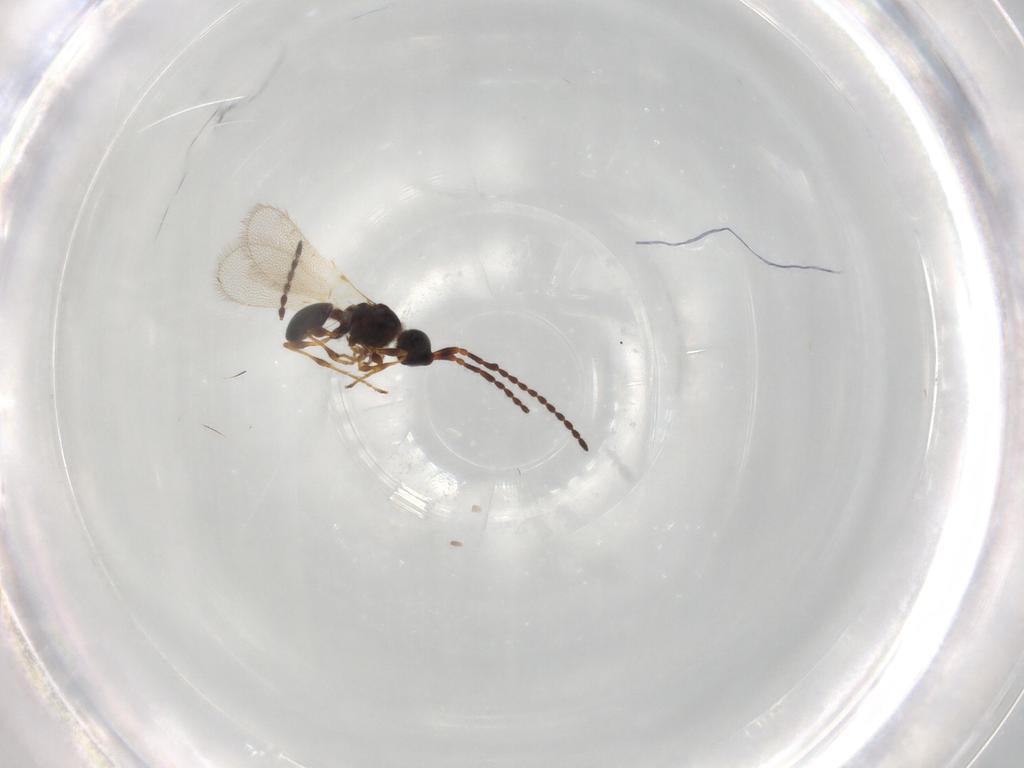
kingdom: Animalia
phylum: Arthropoda
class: Insecta
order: Hymenoptera
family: Diapriidae
